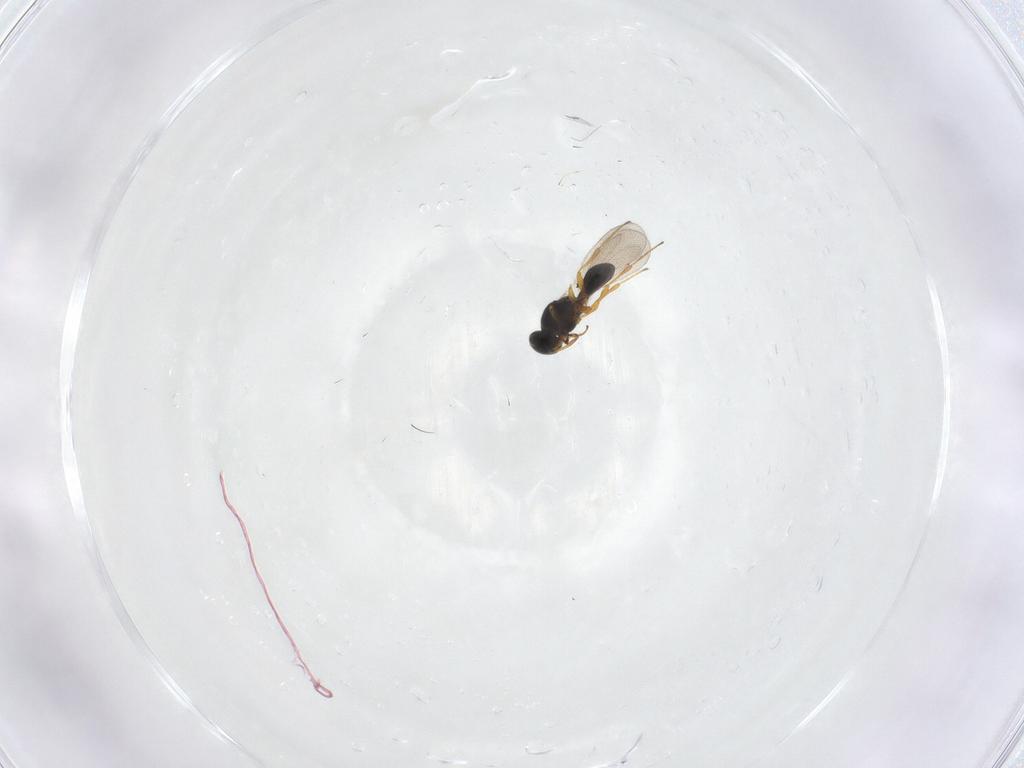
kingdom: Animalia
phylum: Arthropoda
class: Insecta
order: Hymenoptera
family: Platygastridae
